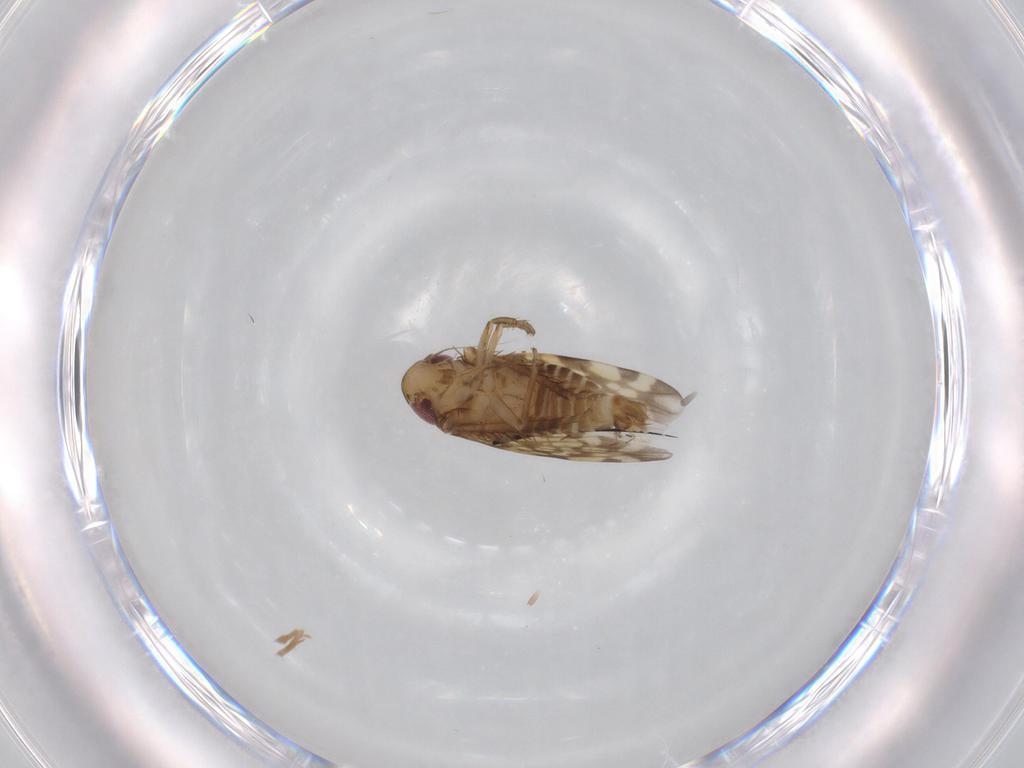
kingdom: Animalia
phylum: Arthropoda
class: Insecta
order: Hemiptera
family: Cicadellidae
